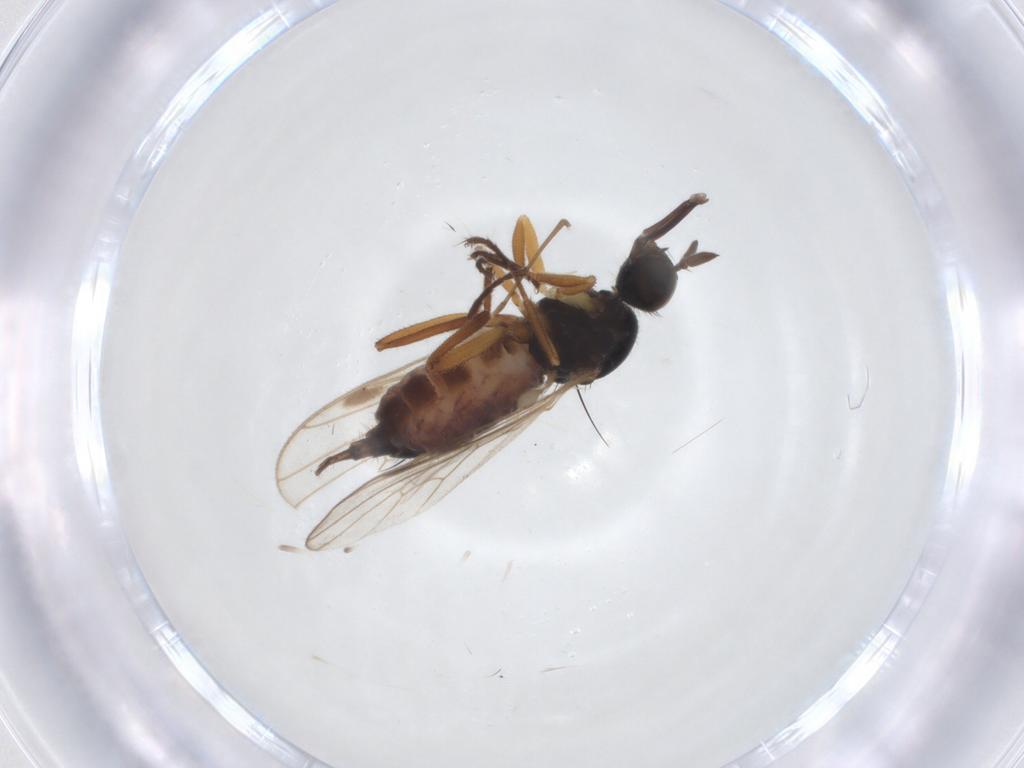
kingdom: Animalia
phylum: Arthropoda
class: Insecta
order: Diptera
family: Hybotidae
